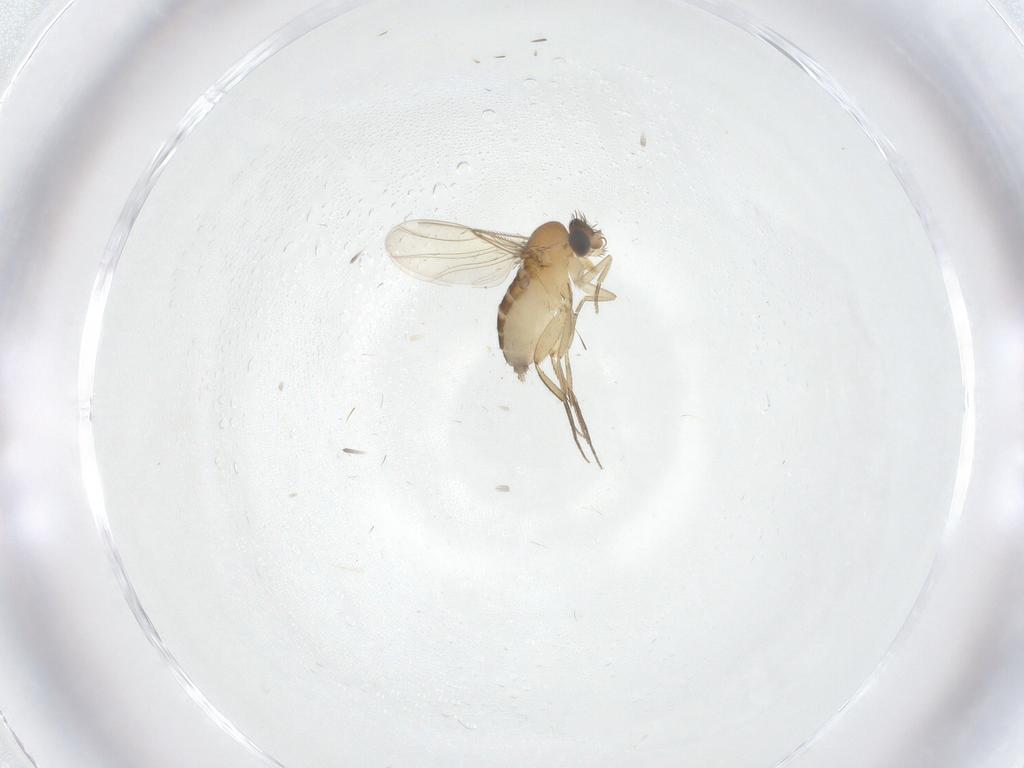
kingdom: Animalia
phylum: Arthropoda
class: Insecta
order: Diptera
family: Phoridae
